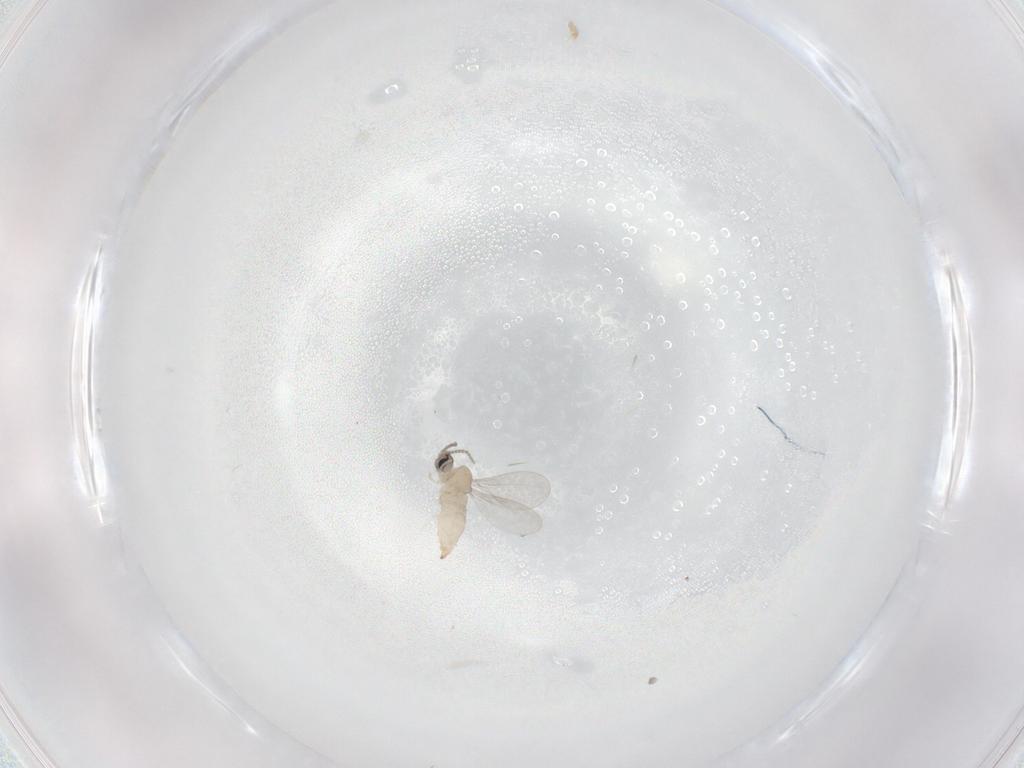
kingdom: Animalia
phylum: Arthropoda
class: Insecta
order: Diptera
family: Cecidomyiidae
